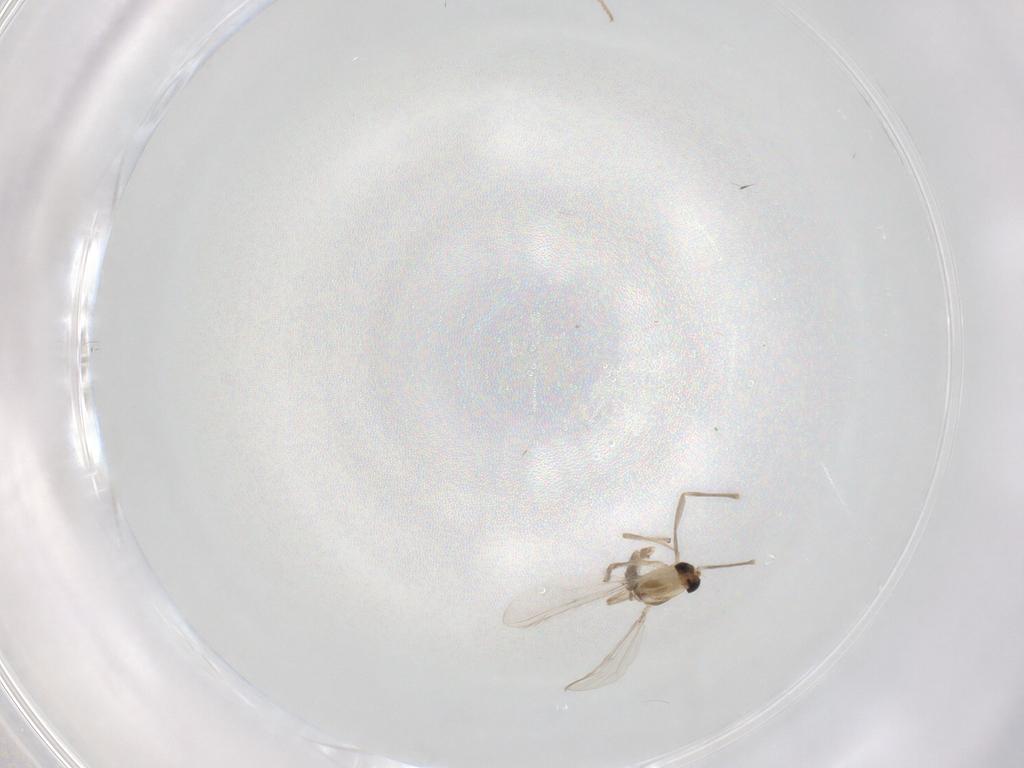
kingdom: Animalia
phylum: Arthropoda
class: Insecta
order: Diptera
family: Chironomidae
